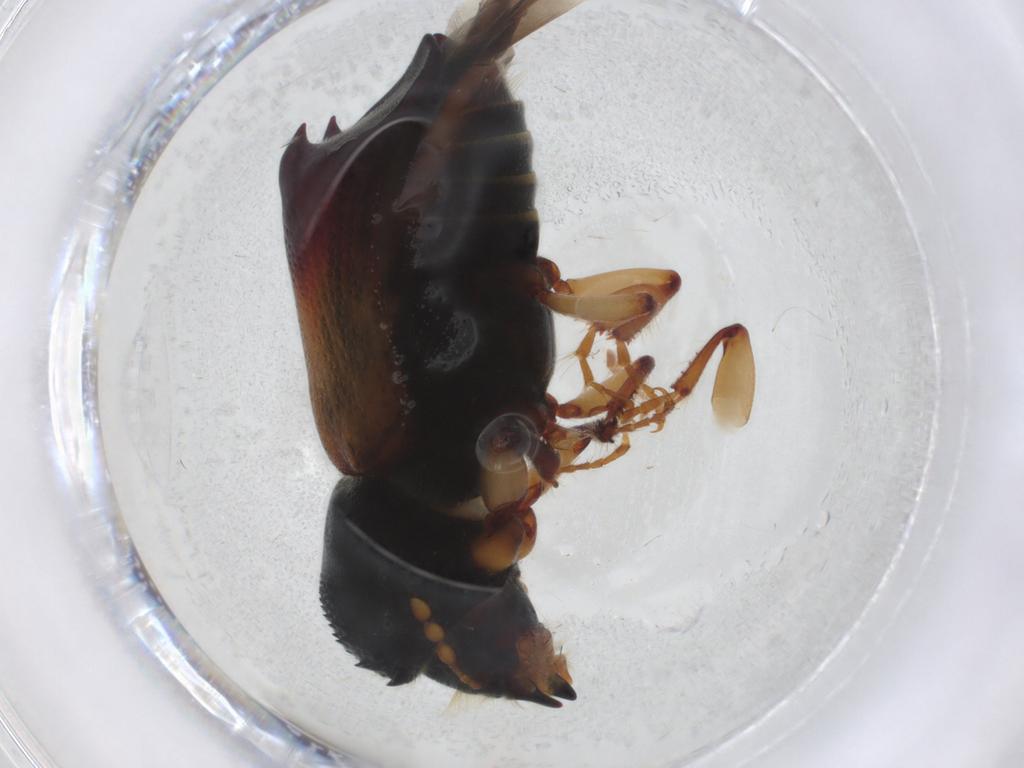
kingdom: Animalia
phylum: Arthropoda
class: Insecta
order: Coleoptera
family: Bostrichidae
